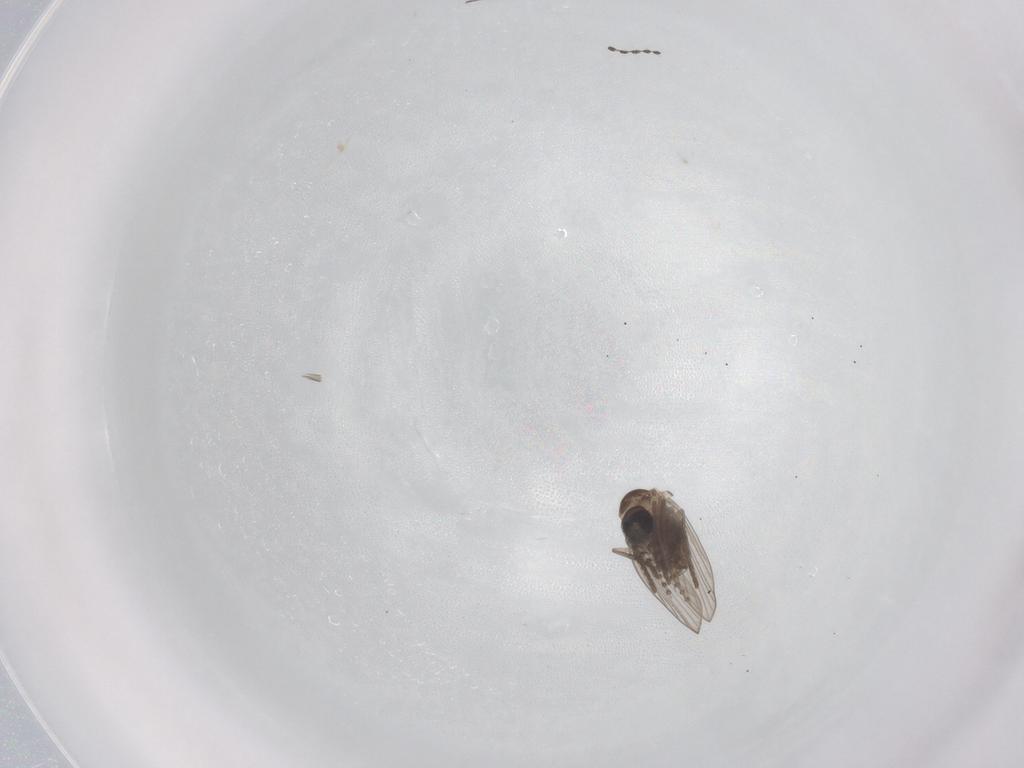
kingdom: Animalia
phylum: Arthropoda
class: Insecta
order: Diptera
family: Psychodidae
